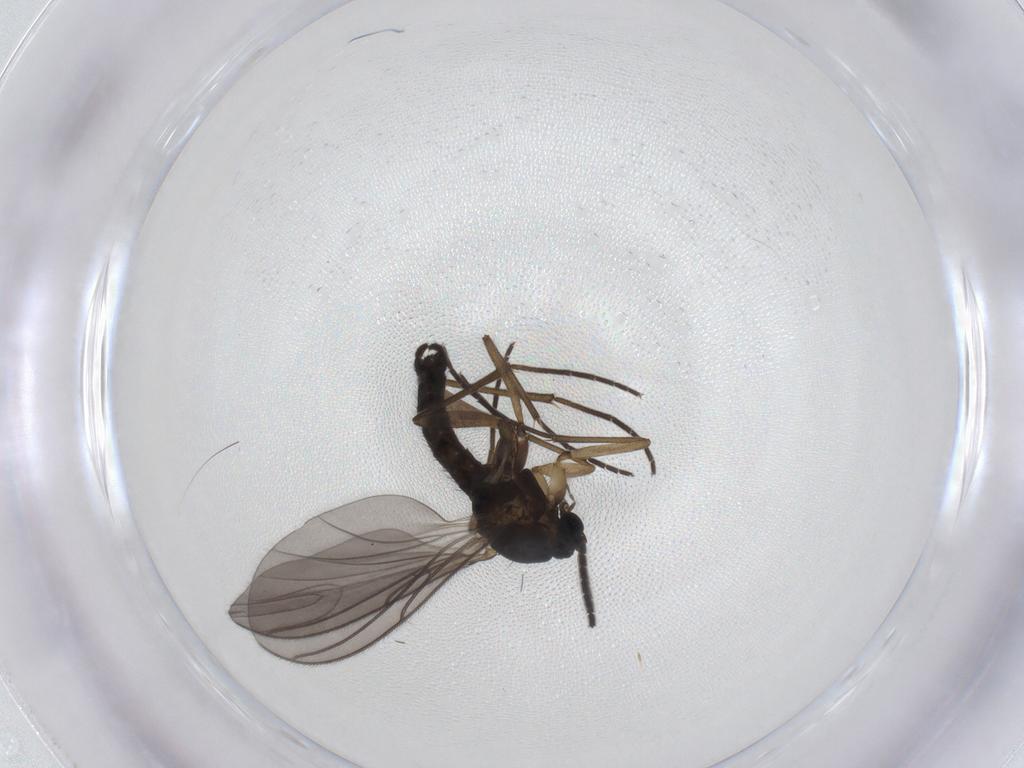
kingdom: Animalia
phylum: Arthropoda
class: Insecta
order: Diptera
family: Sciaridae
